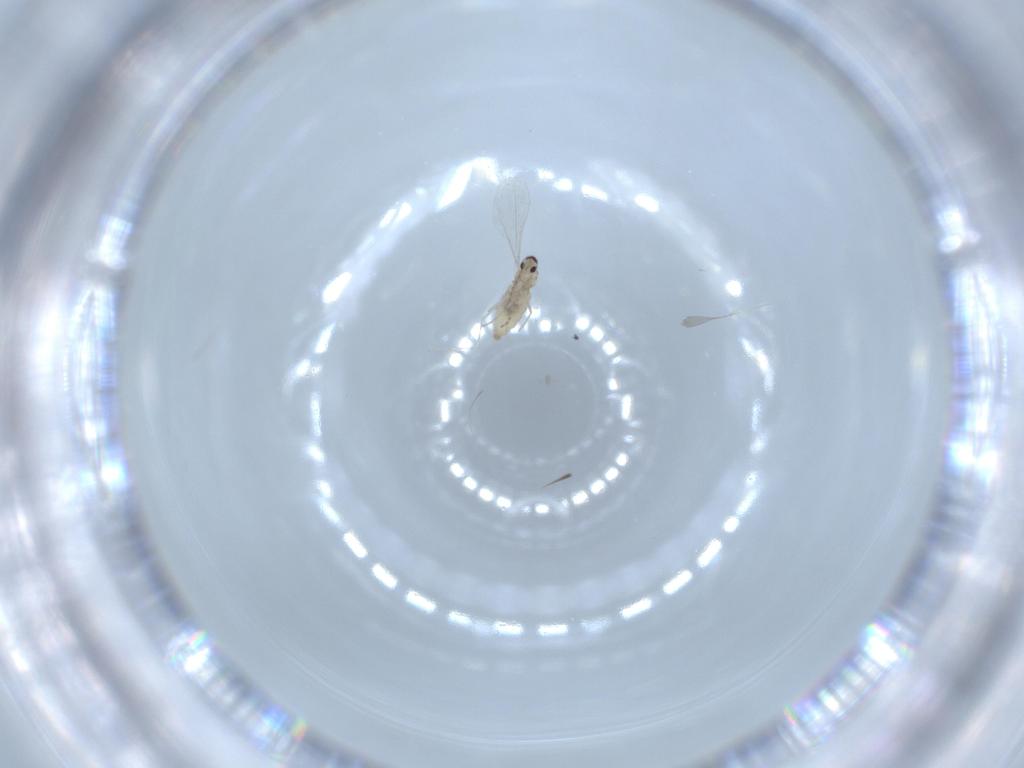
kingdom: Animalia
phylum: Arthropoda
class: Insecta
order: Diptera
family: Cecidomyiidae
